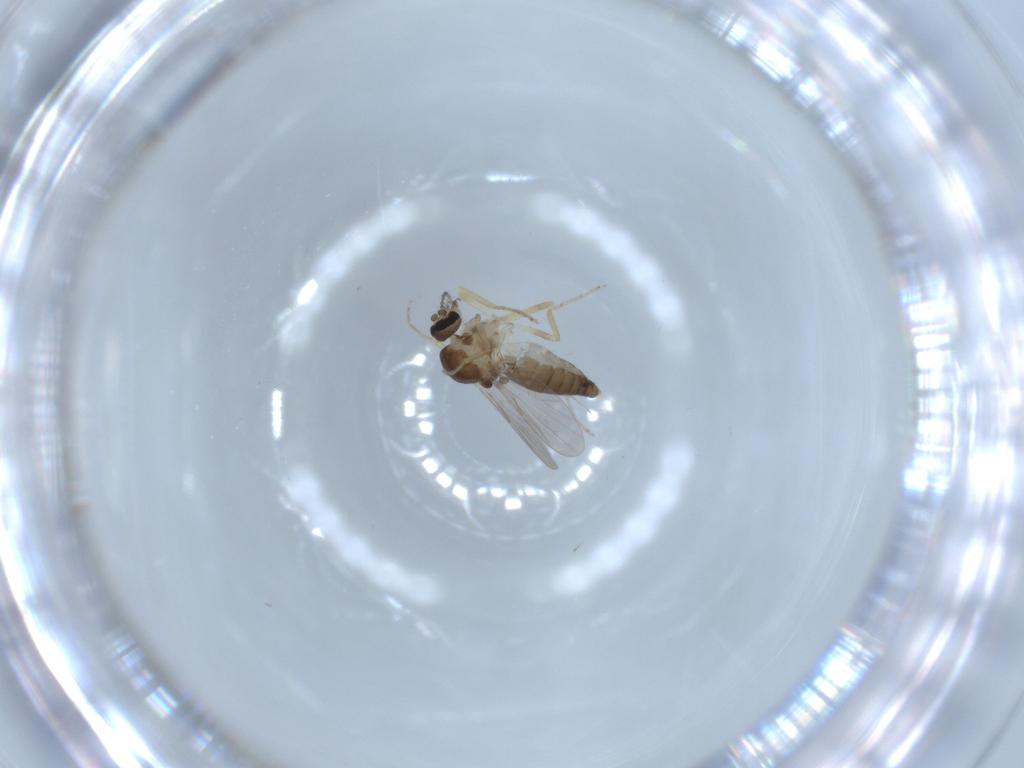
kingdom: Animalia
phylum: Arthropoda
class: Insecta
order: Diptera
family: Ceratopogonidae
